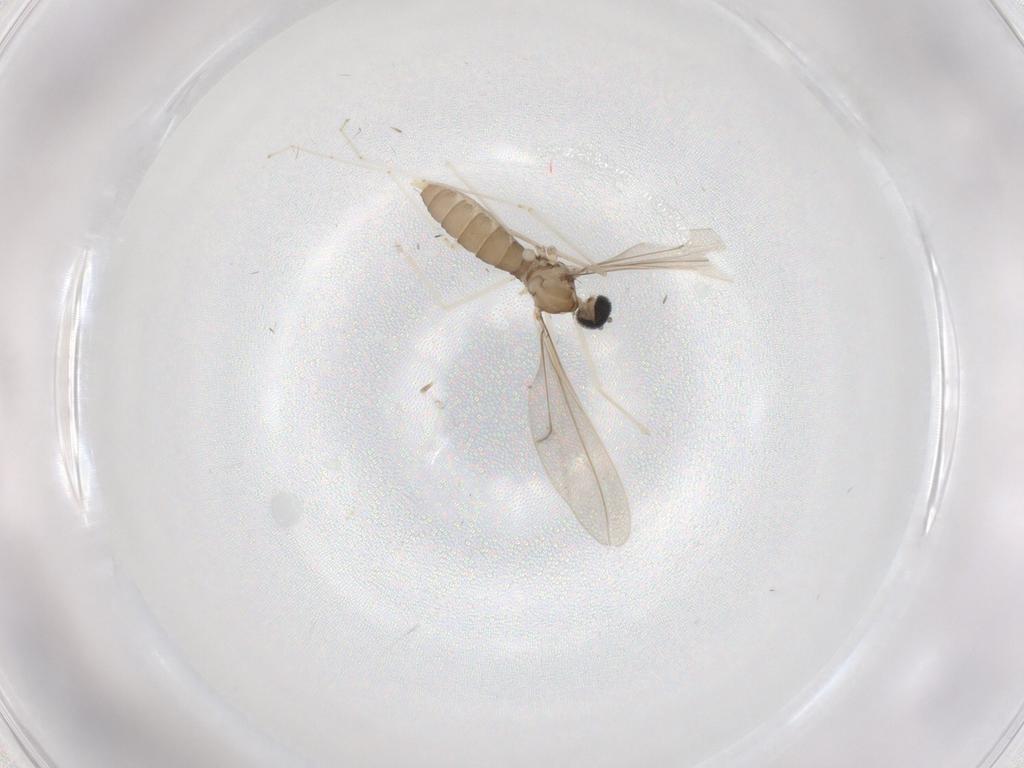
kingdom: Animalia
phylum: Arthropoda
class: Insecta
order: Diptera
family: Cecidomyiidae
